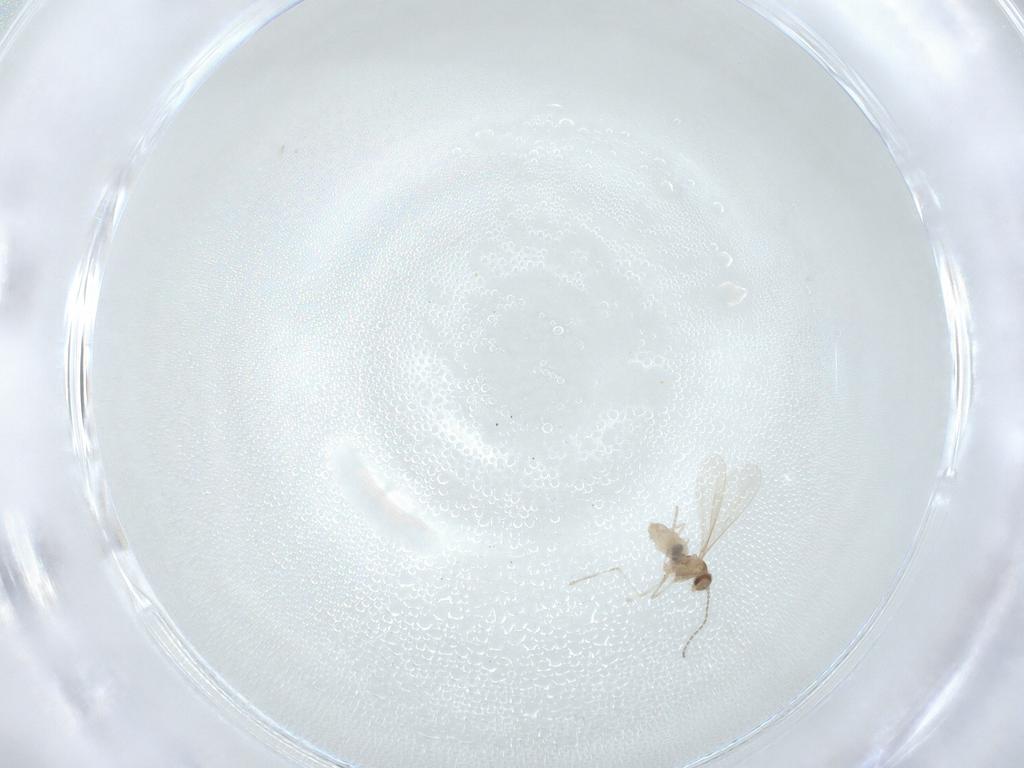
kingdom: Animalia
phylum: Arthropoda
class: Insecta
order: Diptera
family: Cecidomyiidae
